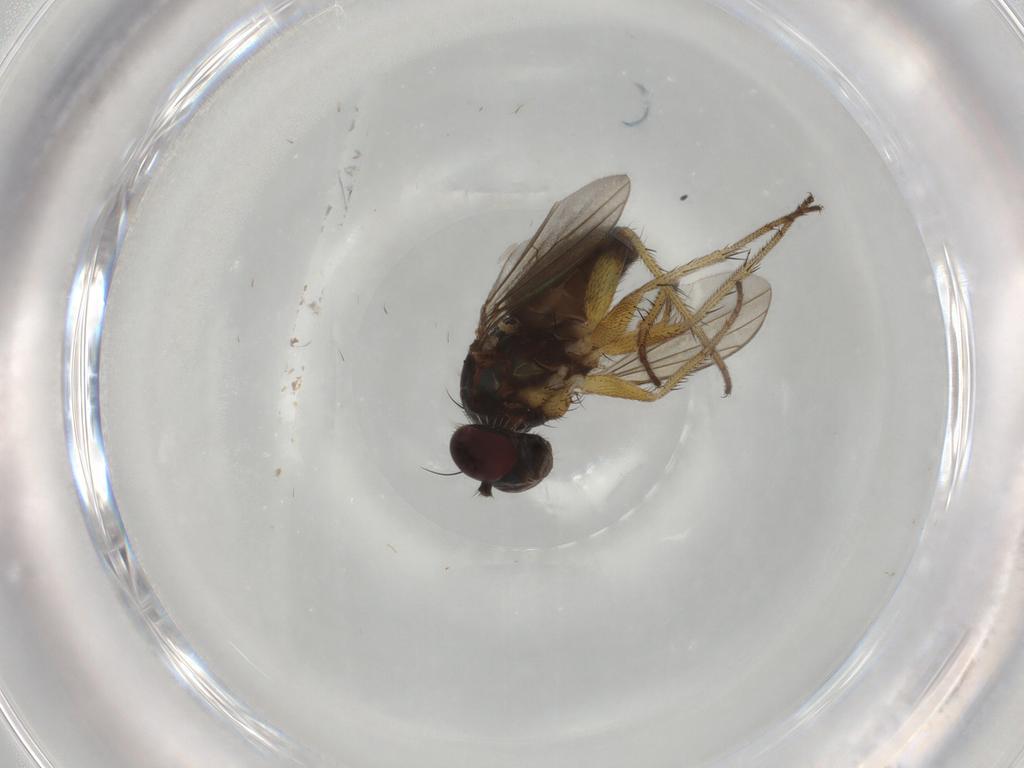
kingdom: Animalia
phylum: Arthropoda
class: Insecta
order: Diptera
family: Dolichopodidae
